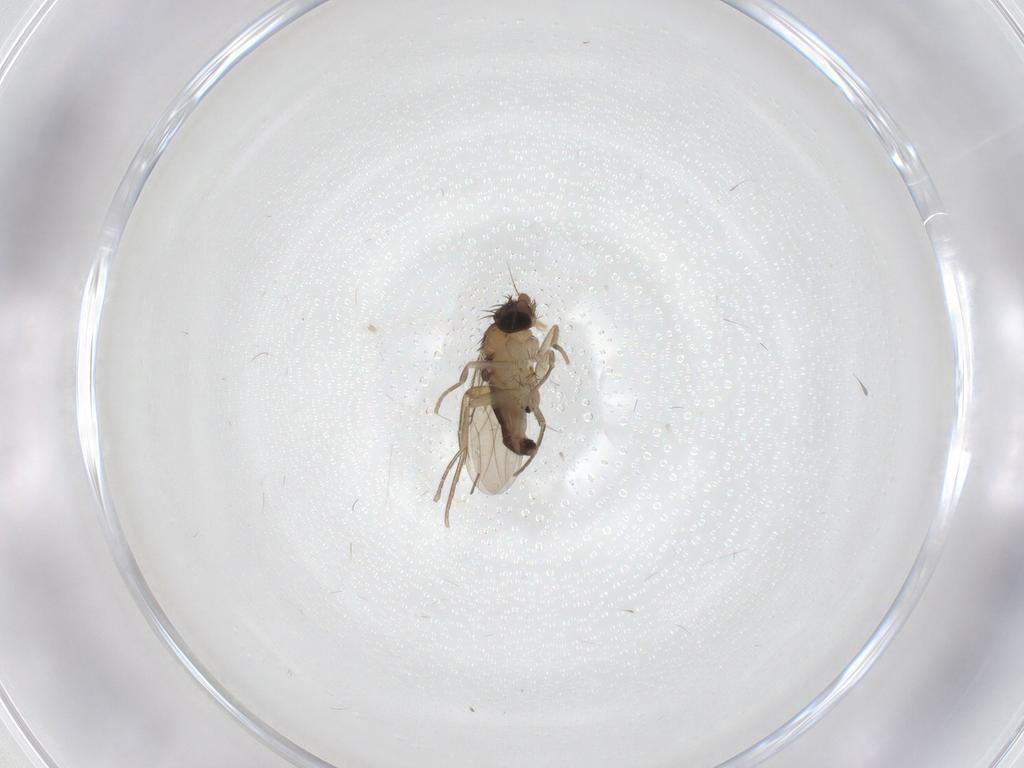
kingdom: Animalia
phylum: Arthropoda
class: Insecta
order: Diptera
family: Phoridae
